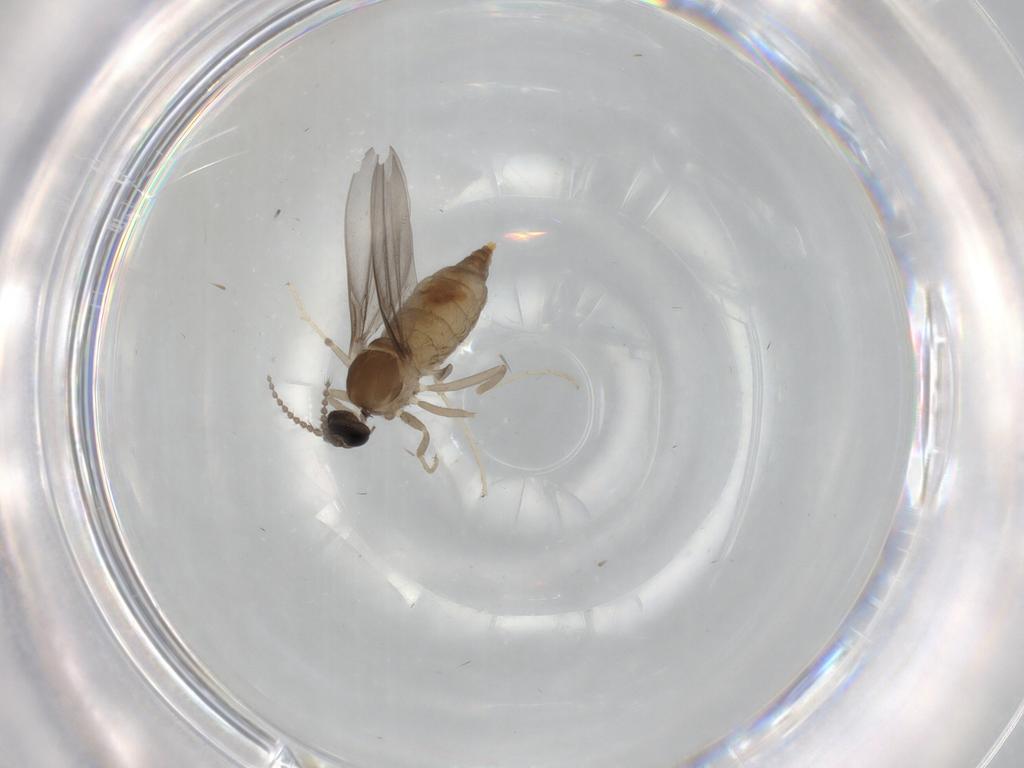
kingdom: Animalia
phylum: Arthropoda
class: Insecta
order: Diptera
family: Cecidomyiidae
